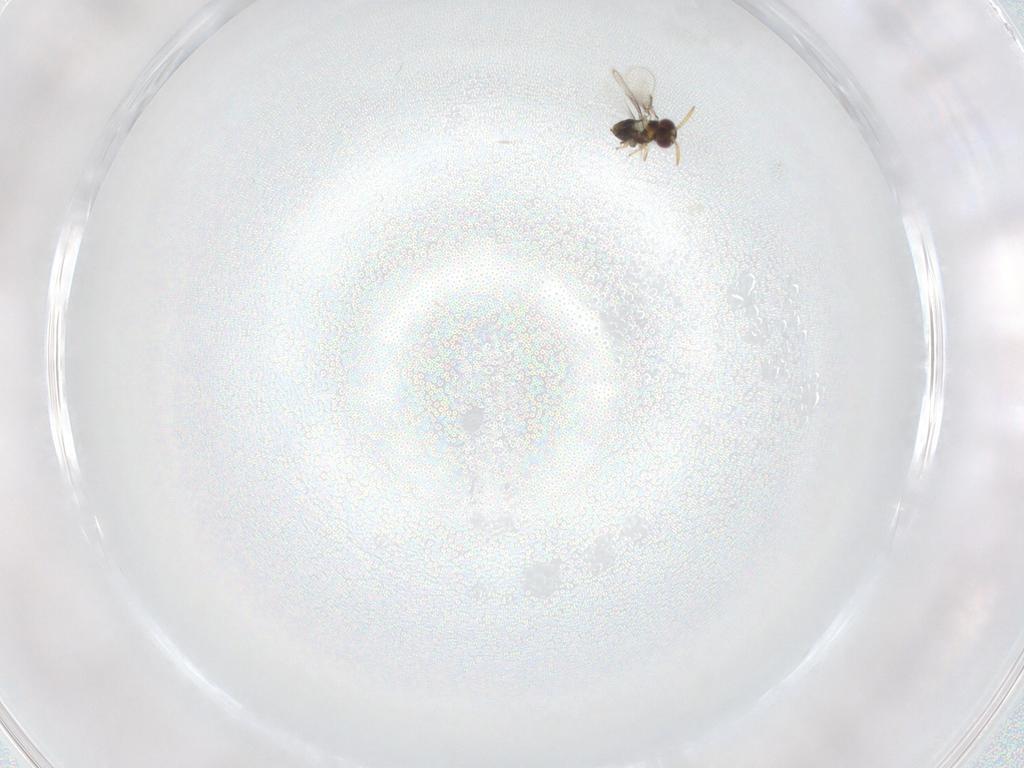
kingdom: Animalia
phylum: Arthropoda
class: Insecta
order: Hymenoptera
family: Aphelinidae
